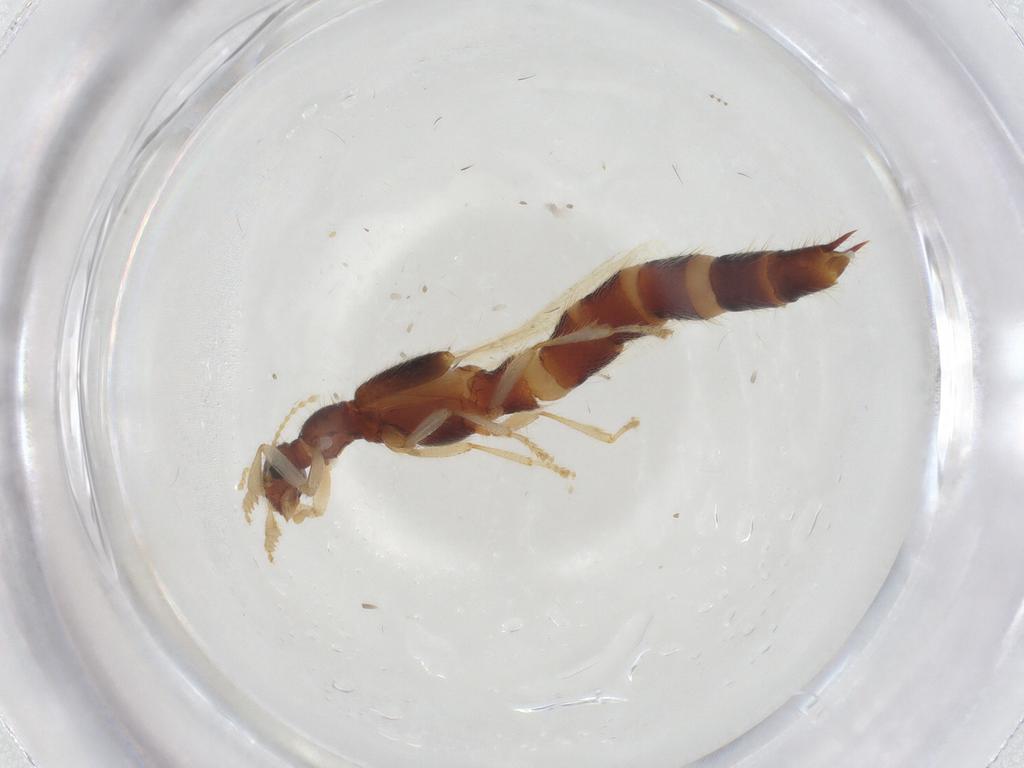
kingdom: Animalia
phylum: Arthropoda
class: Insecta
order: Coleoptera
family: Staphylinidae
